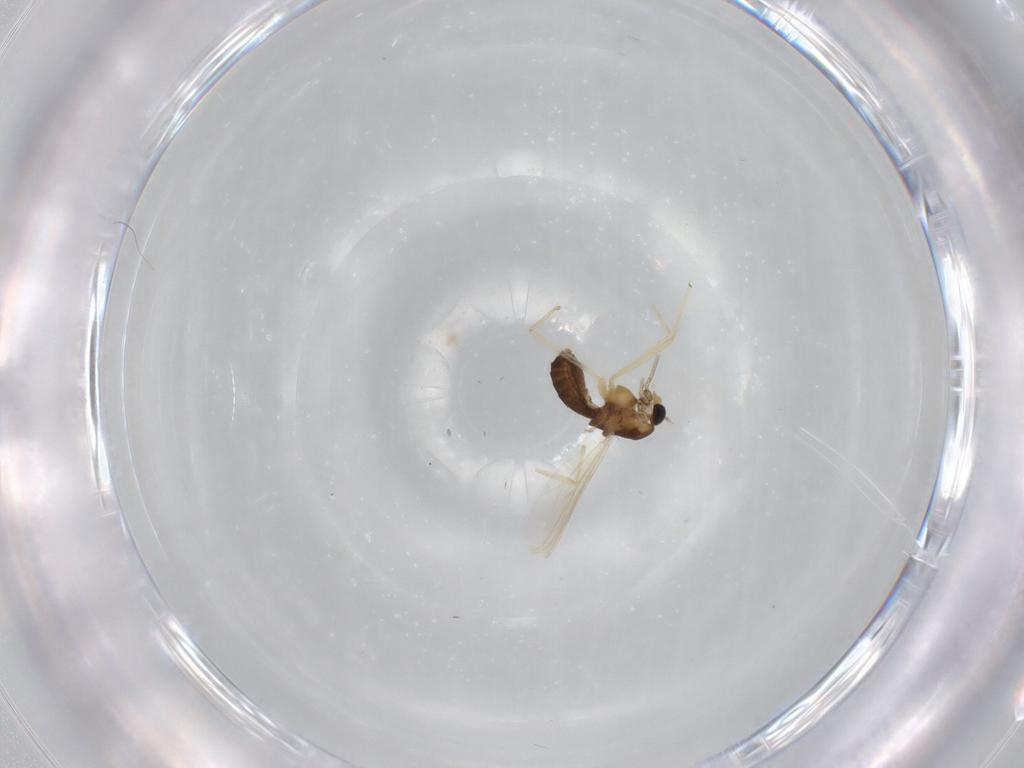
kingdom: Animalia
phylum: Arthropoda
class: Insecta
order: Diptera
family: Chironomidae
